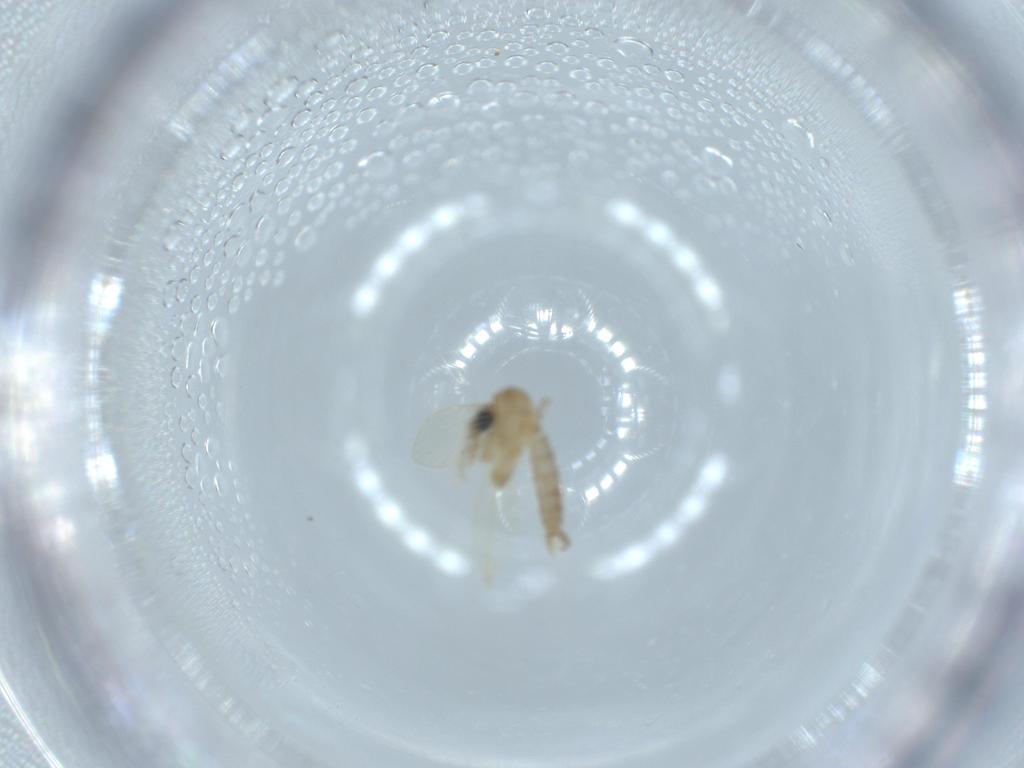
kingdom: Animalia
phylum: Arthropoda
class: Insecta
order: Diptera
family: Psychodidae
